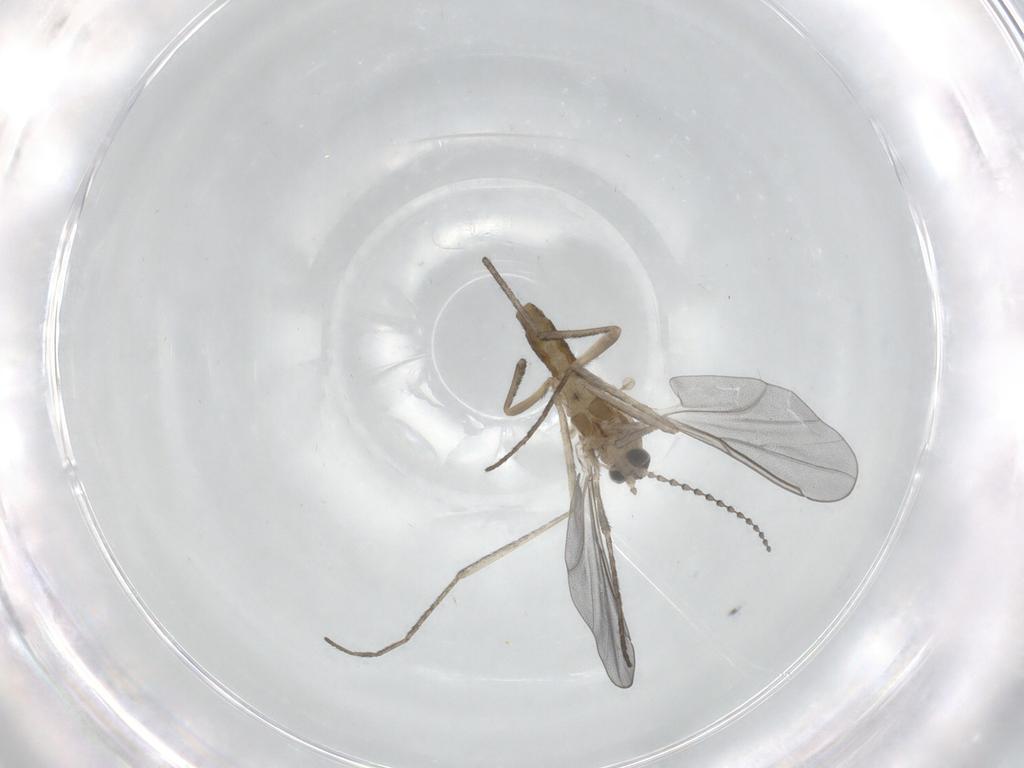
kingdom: Animalia
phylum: Arthropoda
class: Insecta
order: Diptera
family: Cecidomyiidae
